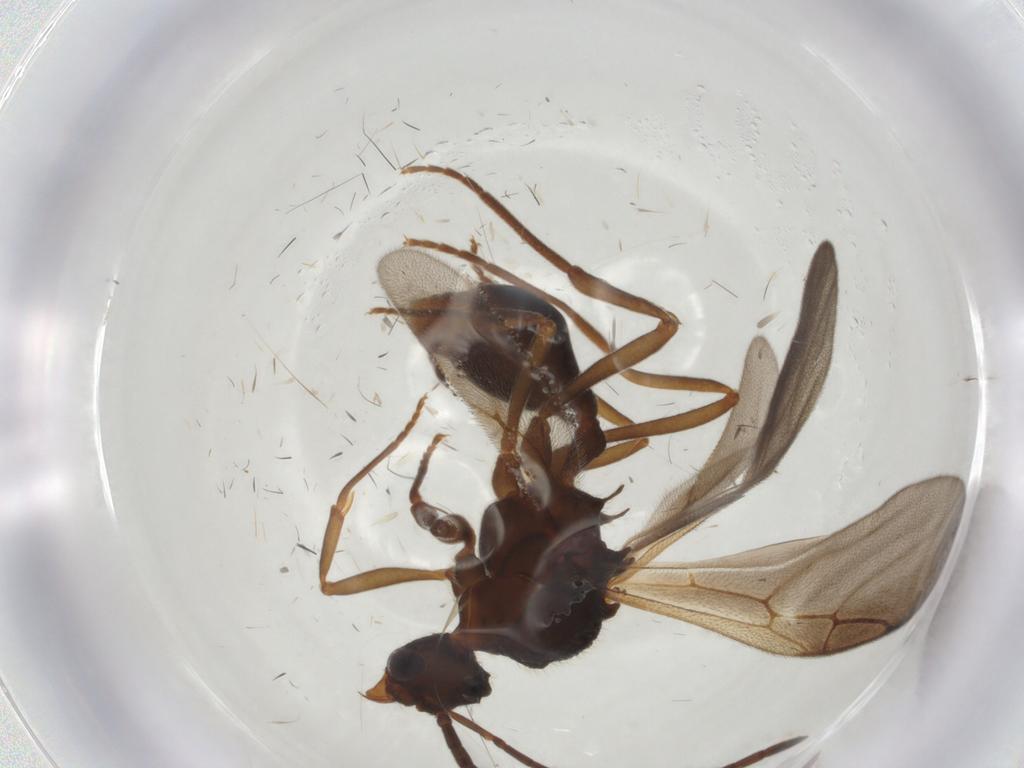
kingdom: Animalia
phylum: Arthropoda
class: Insecta
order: Hymenoptera
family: Formicidae
